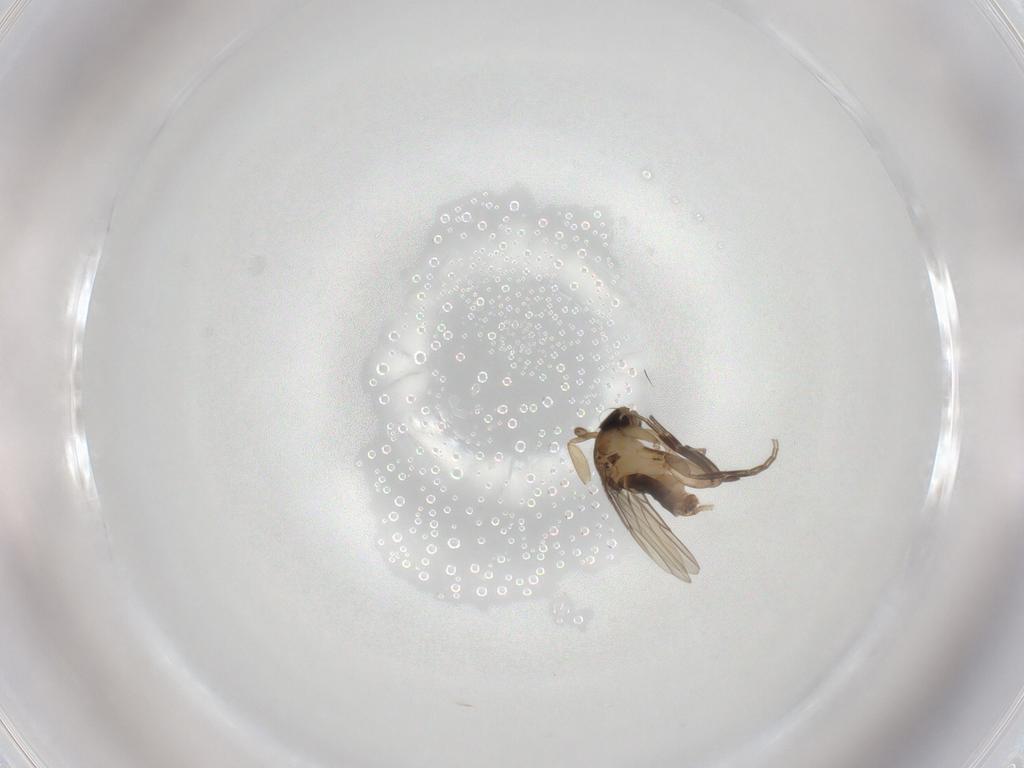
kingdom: Animalia
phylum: Arthropoda
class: Insecta
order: Diptera
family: Phoridae
